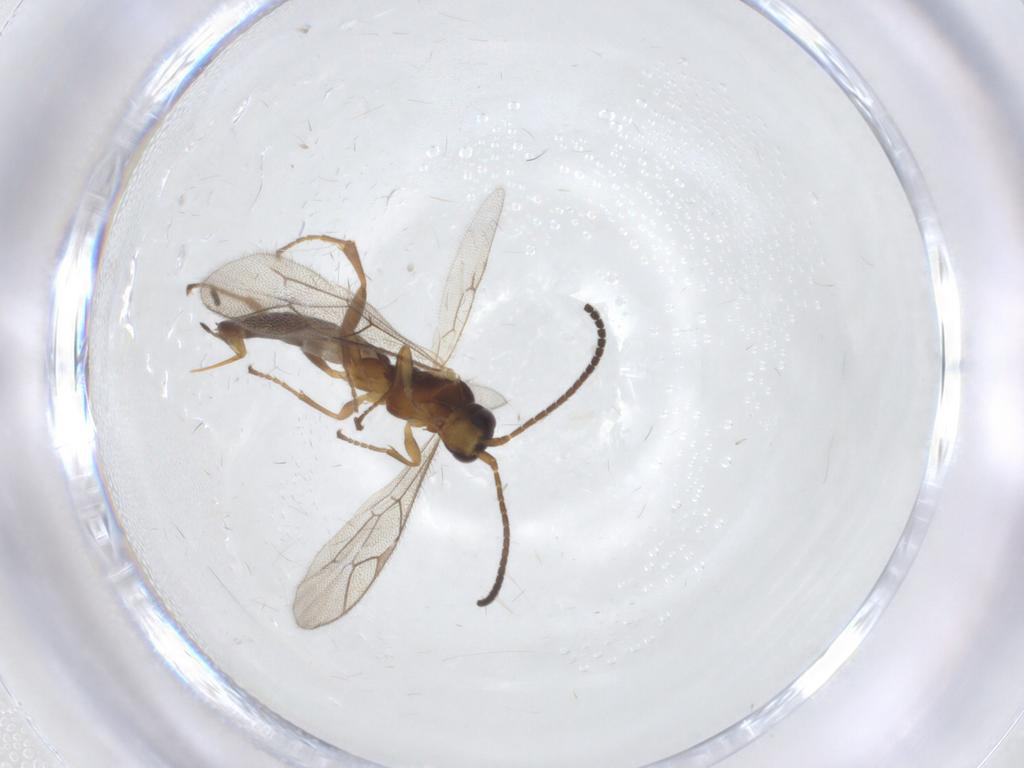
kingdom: Animalia
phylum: Arthropoda
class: Insecta
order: Hymenoptera
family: Ichneumonidae
